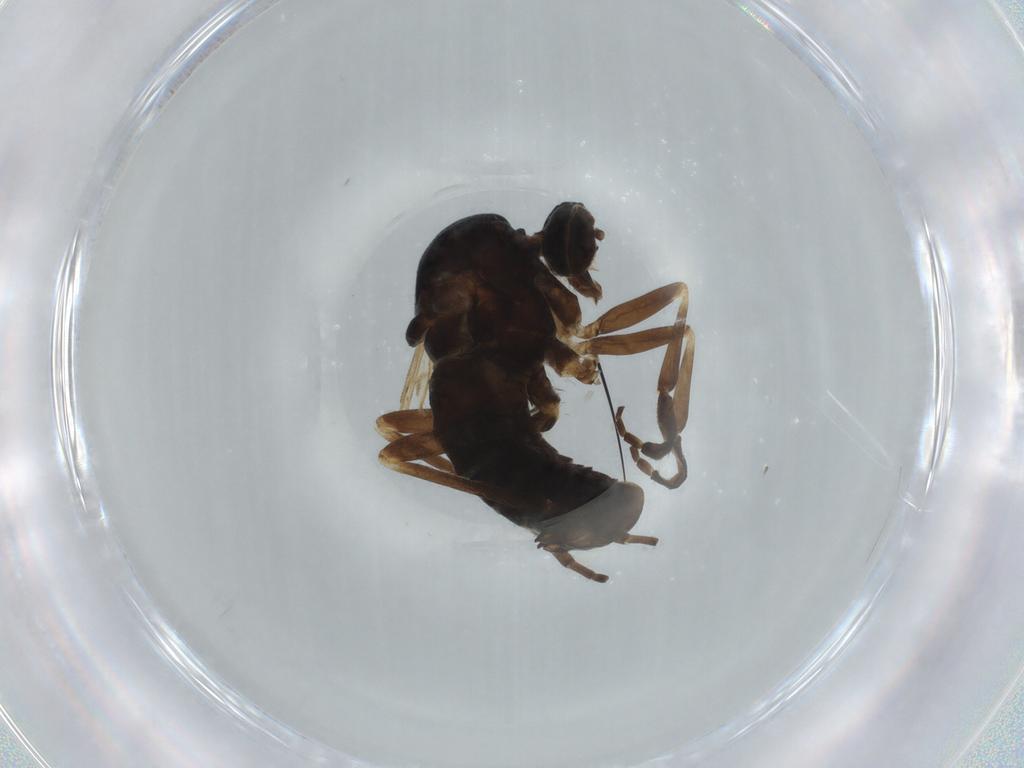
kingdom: Animalia
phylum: Arthropoda
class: Insecta
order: Diptera
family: Empididae
